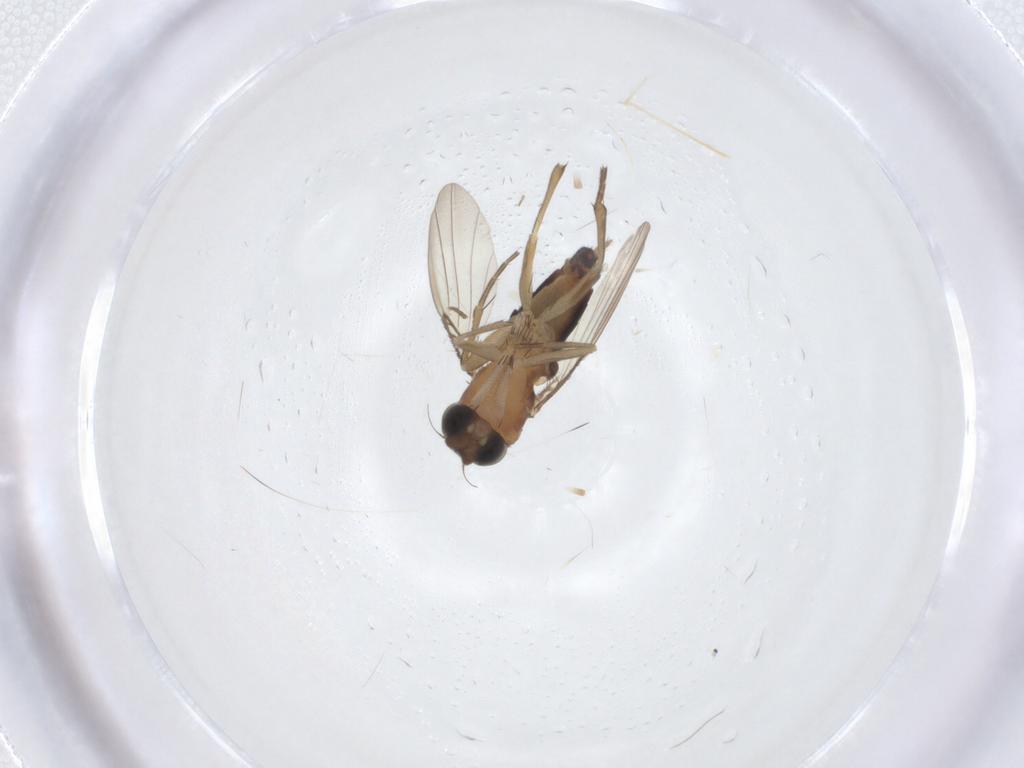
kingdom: Animalia
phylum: Arthropoda
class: Insecta
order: Diptera
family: Phoridae
